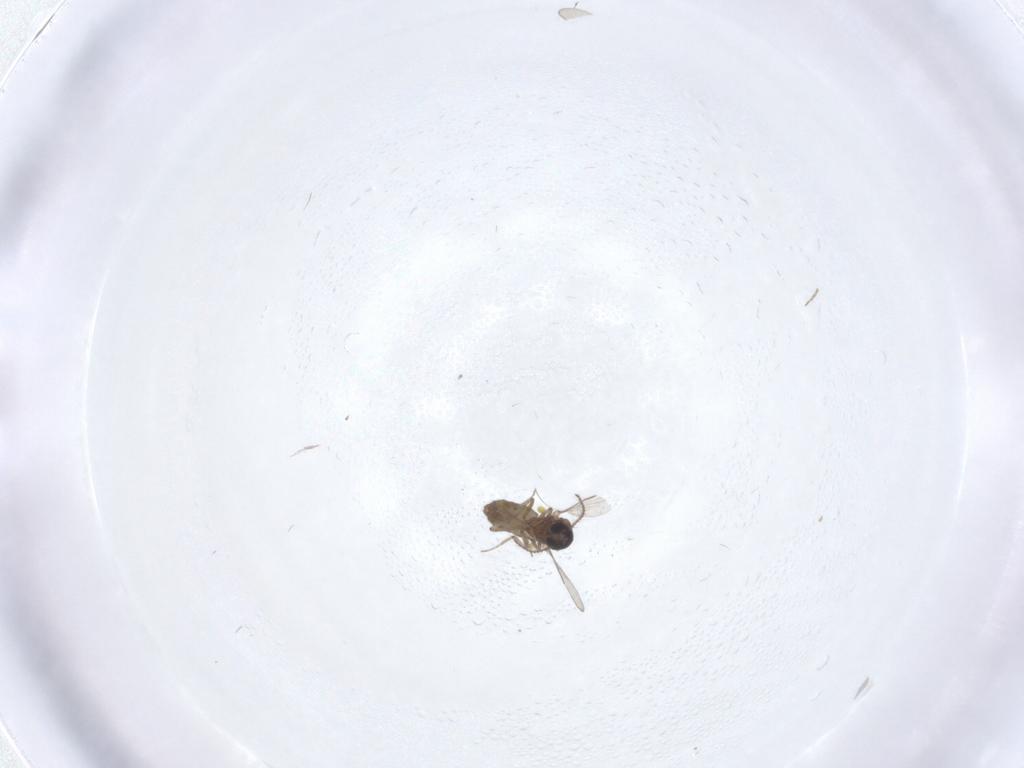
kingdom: Animalia
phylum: Arthropoda
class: Insecta
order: Diptera
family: Ceratopogonidae
